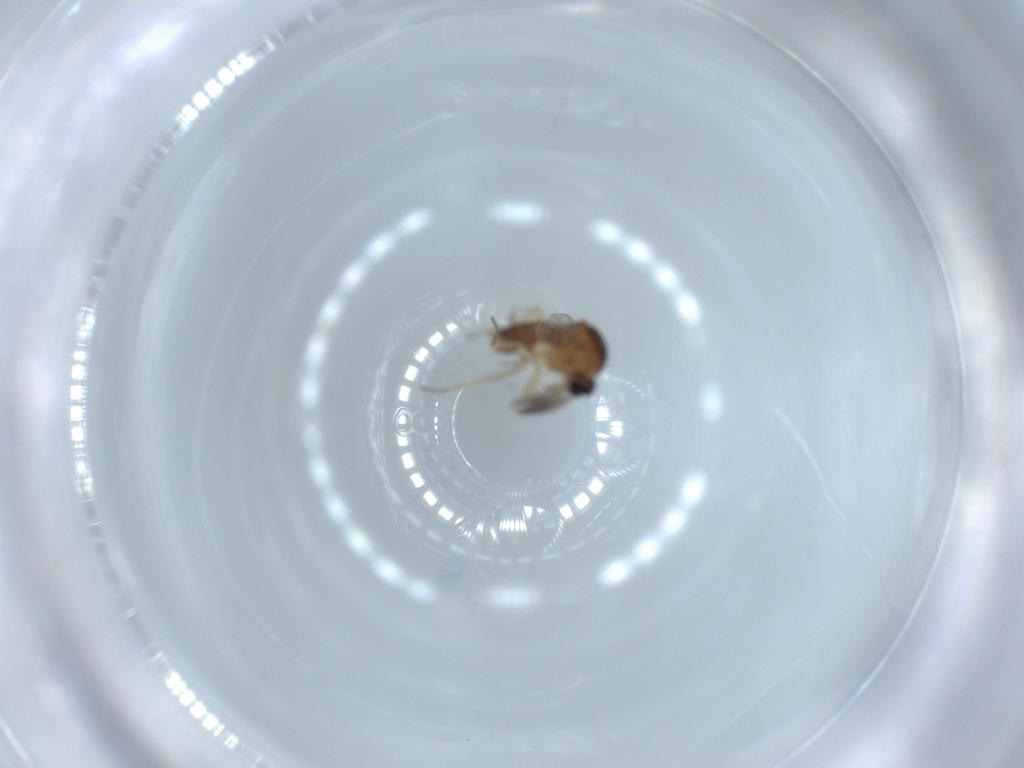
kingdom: Animalia
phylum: Arthropoda
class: Insecta
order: Diptera
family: Ceratopogonidae
